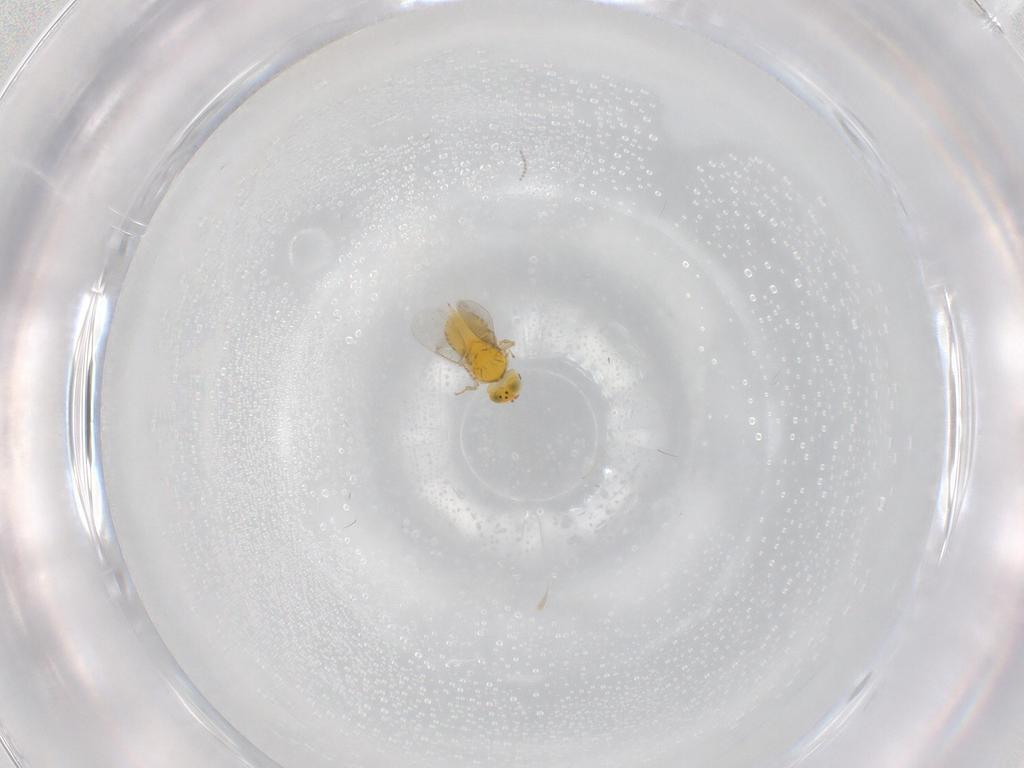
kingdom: Animalia
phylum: Arthropoda
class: Insecta
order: Hymenoptera
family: Aphelinidae
